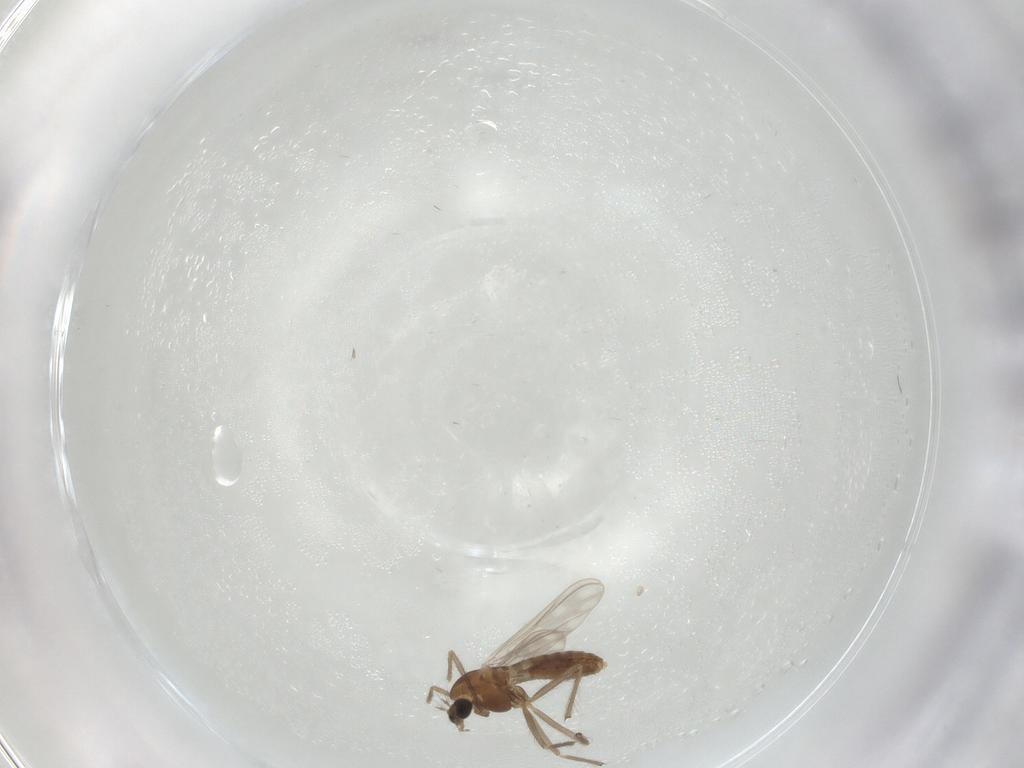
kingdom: Animalia
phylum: Arthropoda
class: Insecta
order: Diptera
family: Chironomidae
